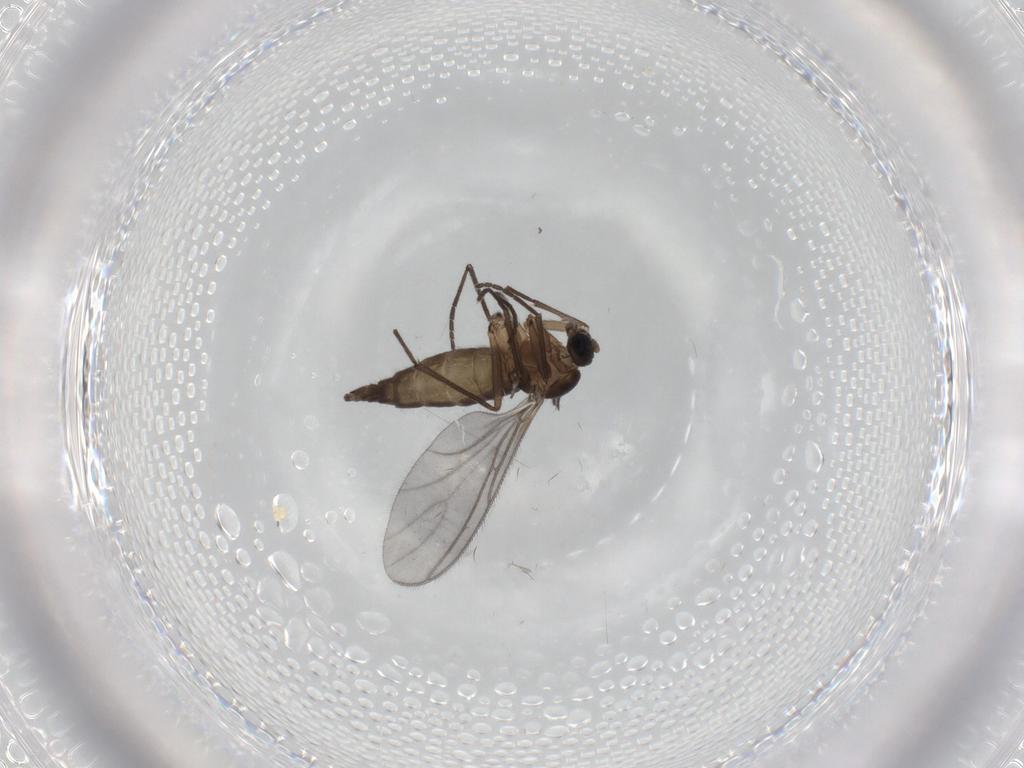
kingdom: Animalia
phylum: Arthropoda
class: Insecta
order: Diptera
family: Sciaridae
